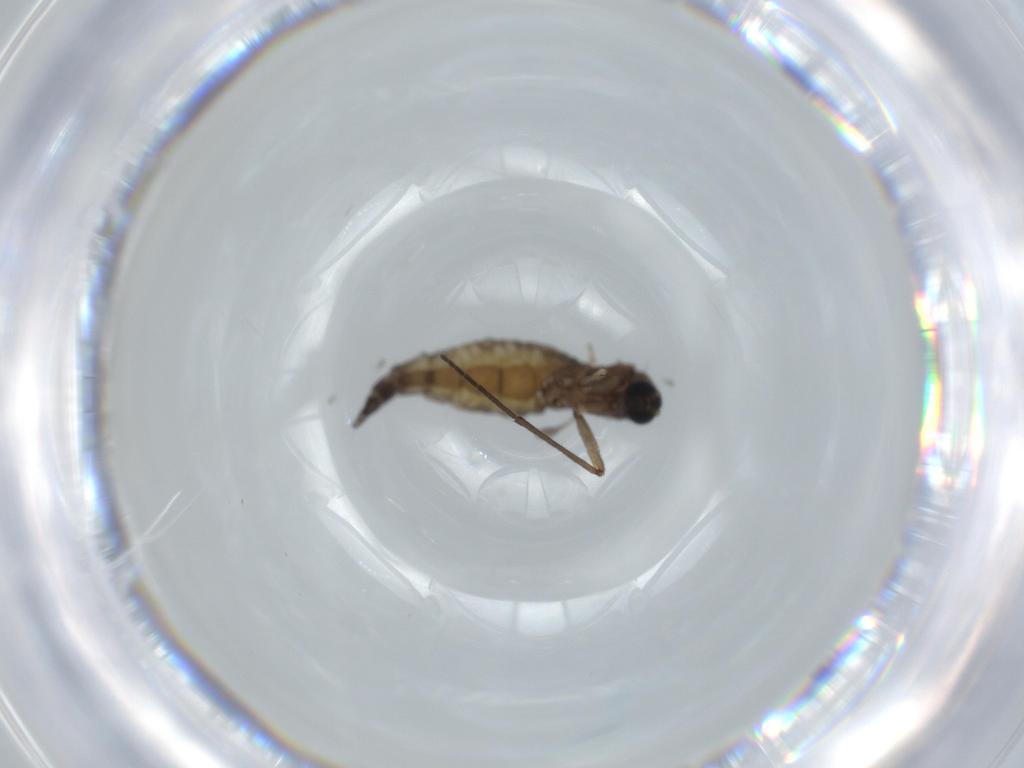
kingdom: Animalia
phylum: Arthropoda
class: Insecta
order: Diptera
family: Sciaridae
